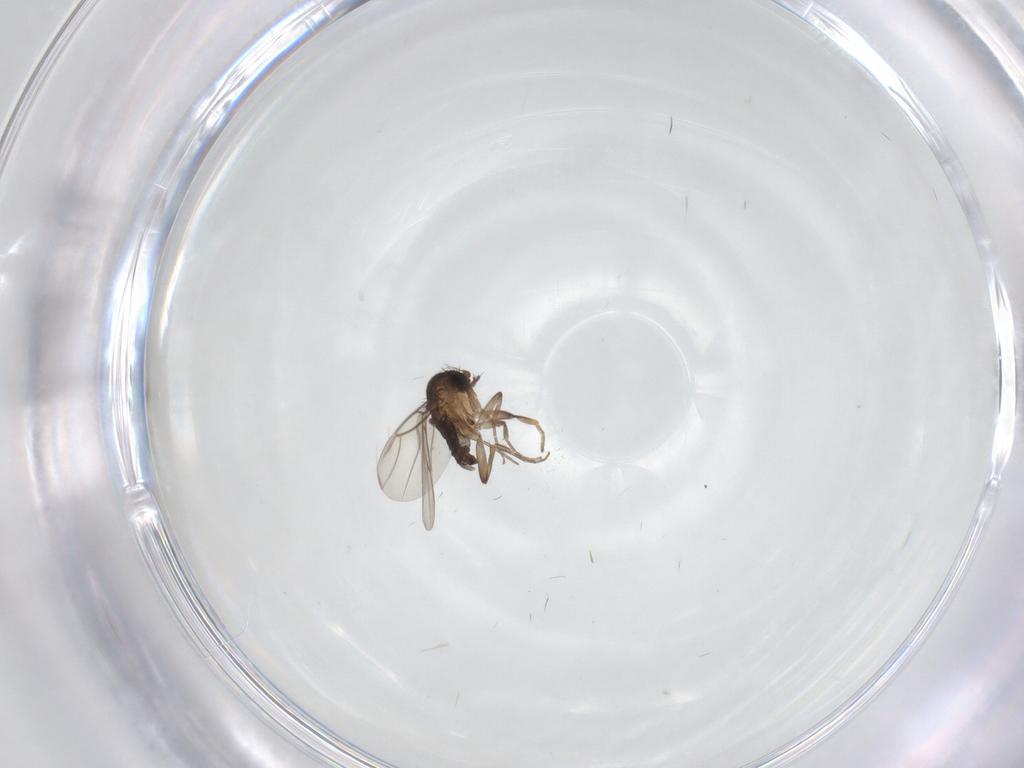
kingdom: Animalia
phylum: Arthropoda
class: Insecta
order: Diptera
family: Phoridae
